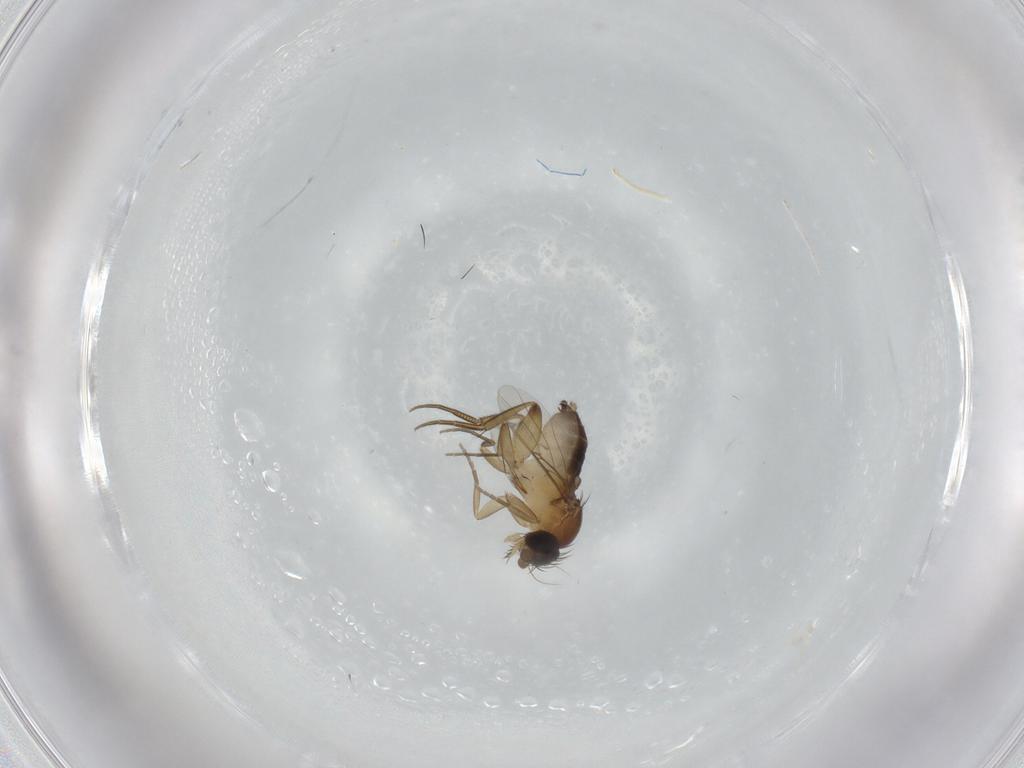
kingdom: Animalia
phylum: Arthropoda
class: Insecta
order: Diptera
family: Phoridae
